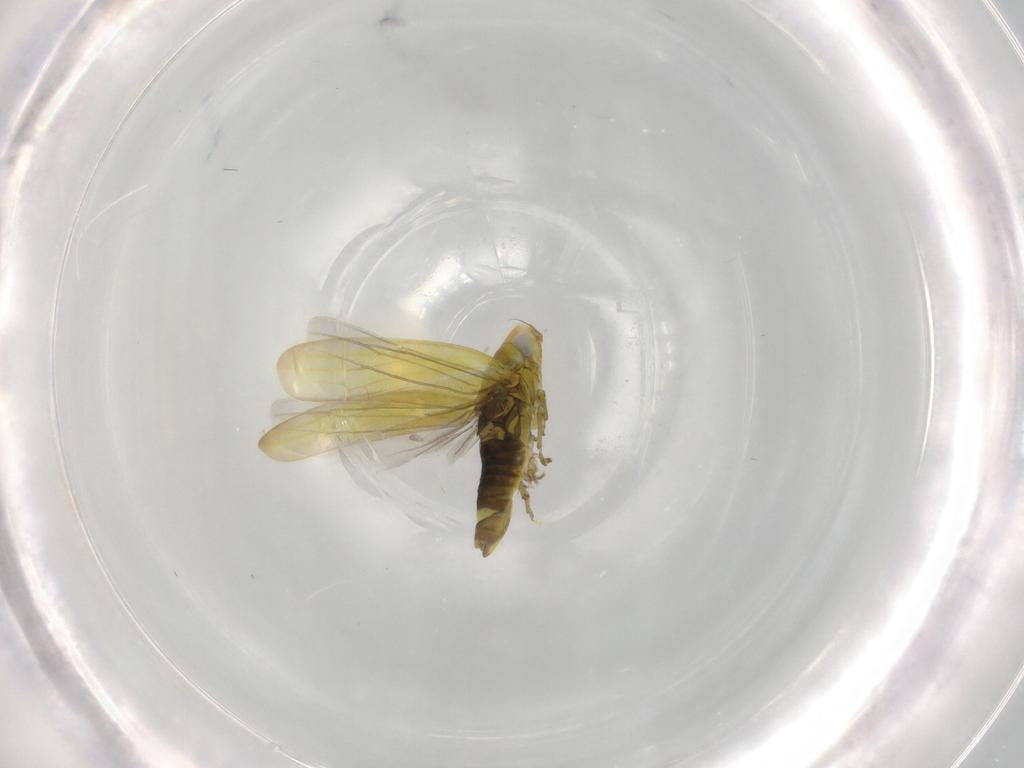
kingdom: Animalia
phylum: Arthropoda
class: Insecta
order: Hemiptera
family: Cicadellidae
